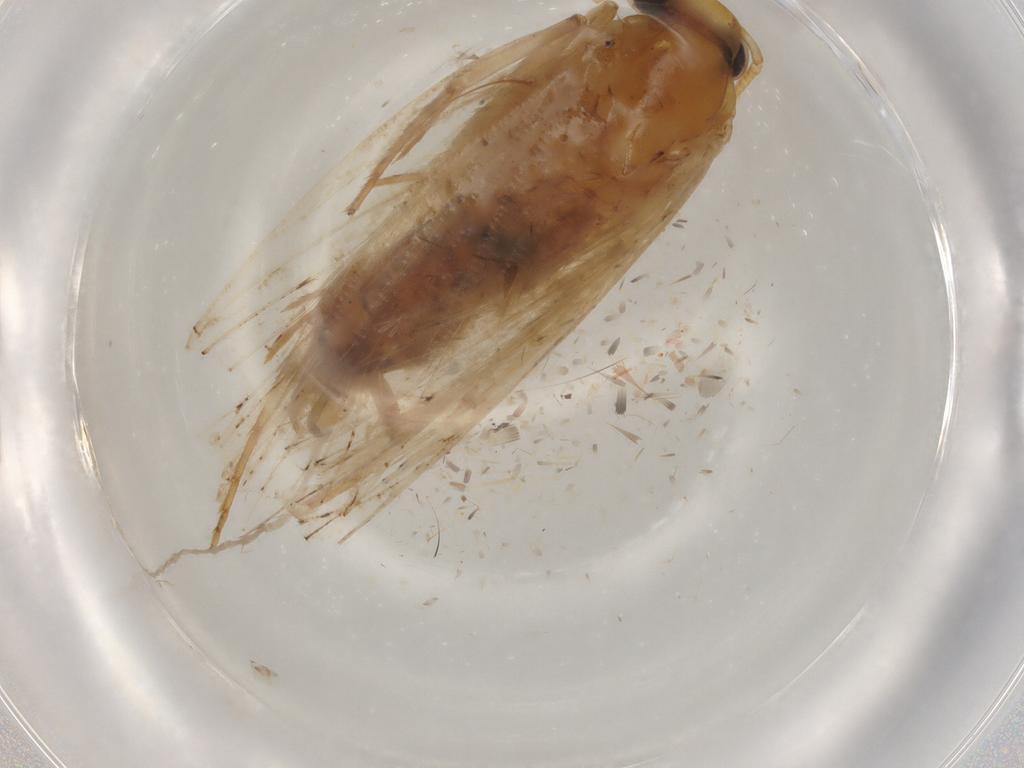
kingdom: Animalia
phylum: Arthropoda
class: Insecta
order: Lepidoptera
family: Depressariidae
